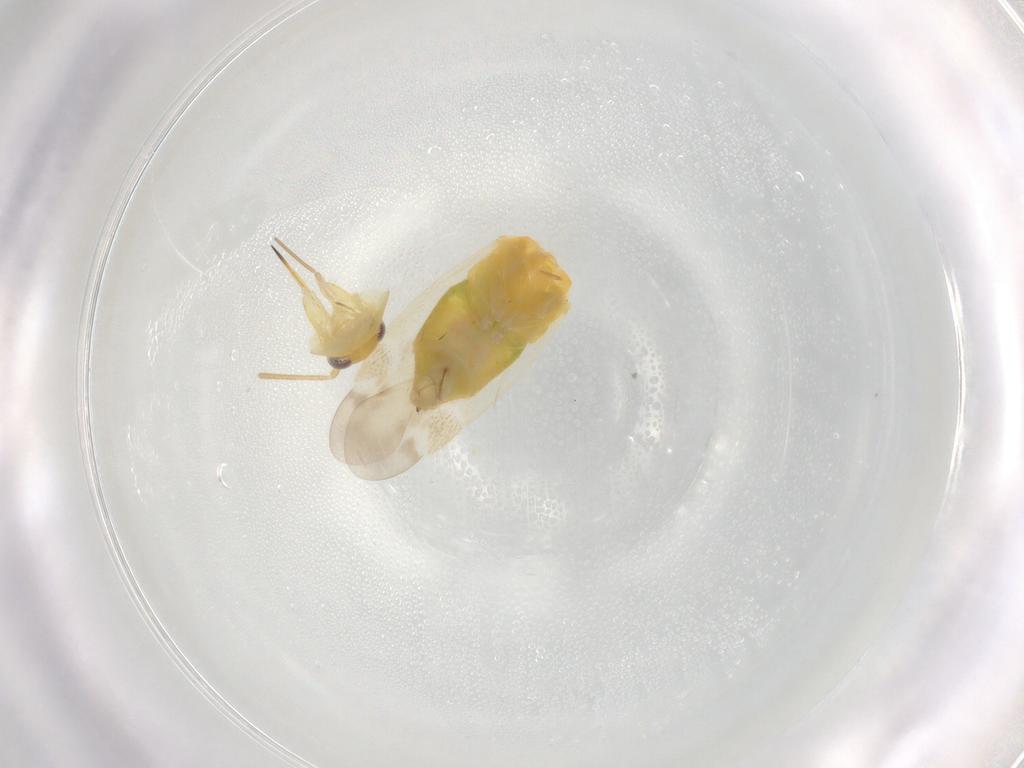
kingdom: Animalia
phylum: Arthropoda
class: Insecta
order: Hemiptera
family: Miridae
